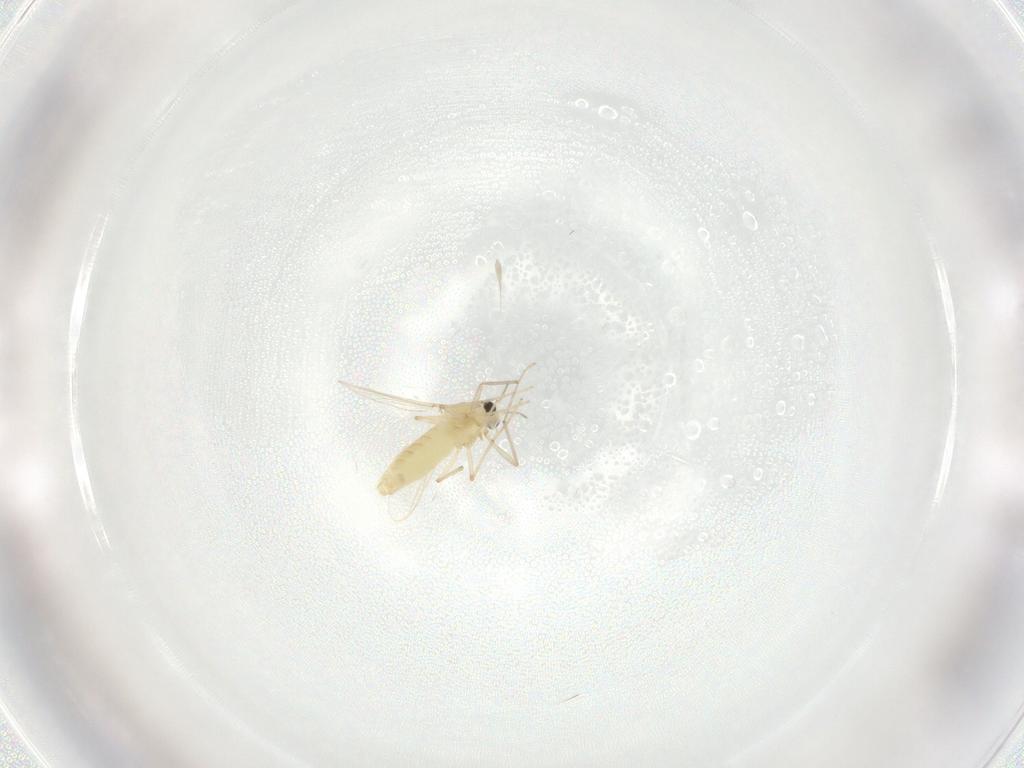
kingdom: Animalia
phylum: Arthropoda
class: Insecta
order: Diptera
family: Chironomidae
